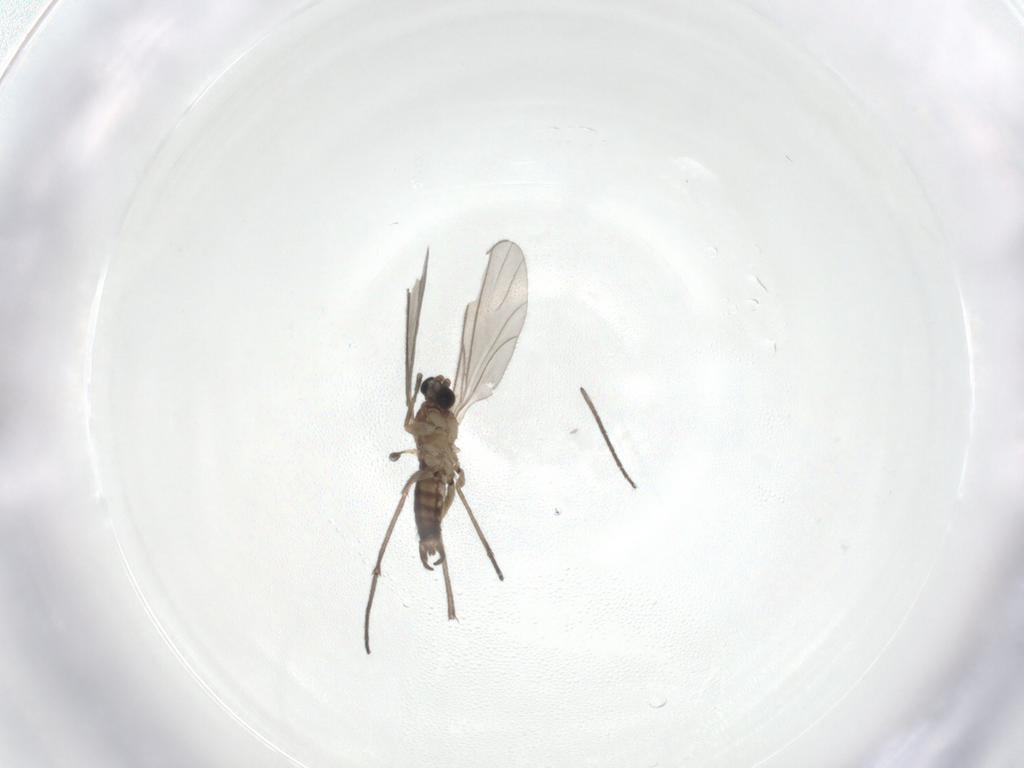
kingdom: Animalia
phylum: Arthropoda
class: Insecta
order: Diptera
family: Sciaridae
